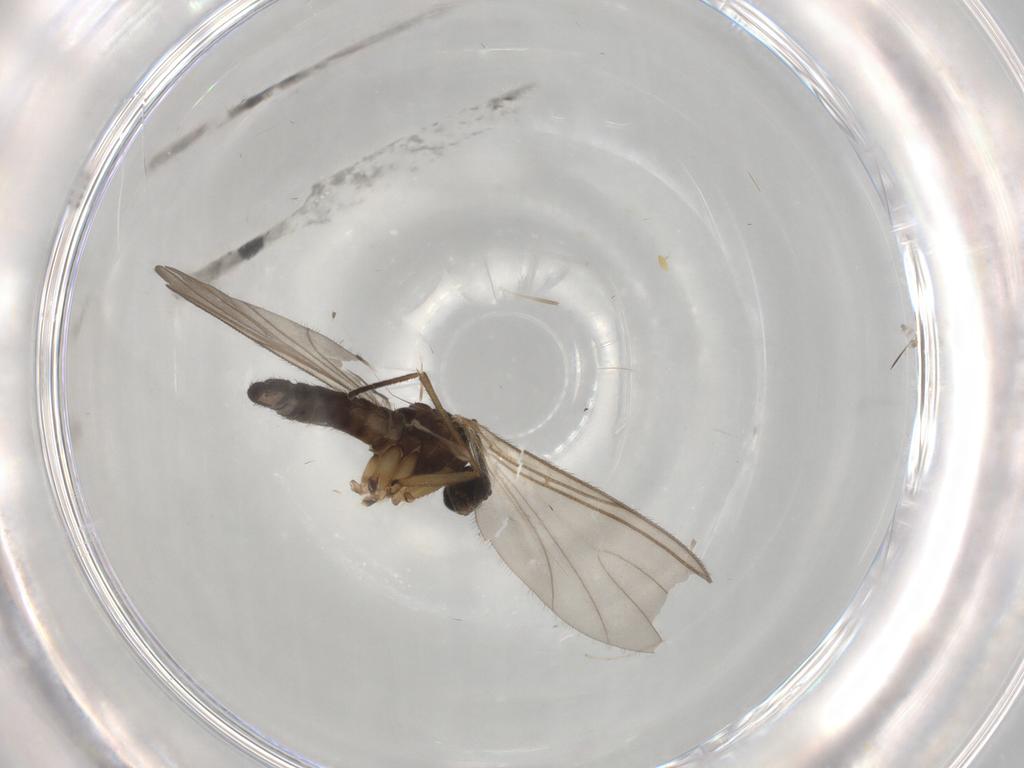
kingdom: Animalia
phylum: Arthropoda
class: Insecta
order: Diptera
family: Sciaridae
